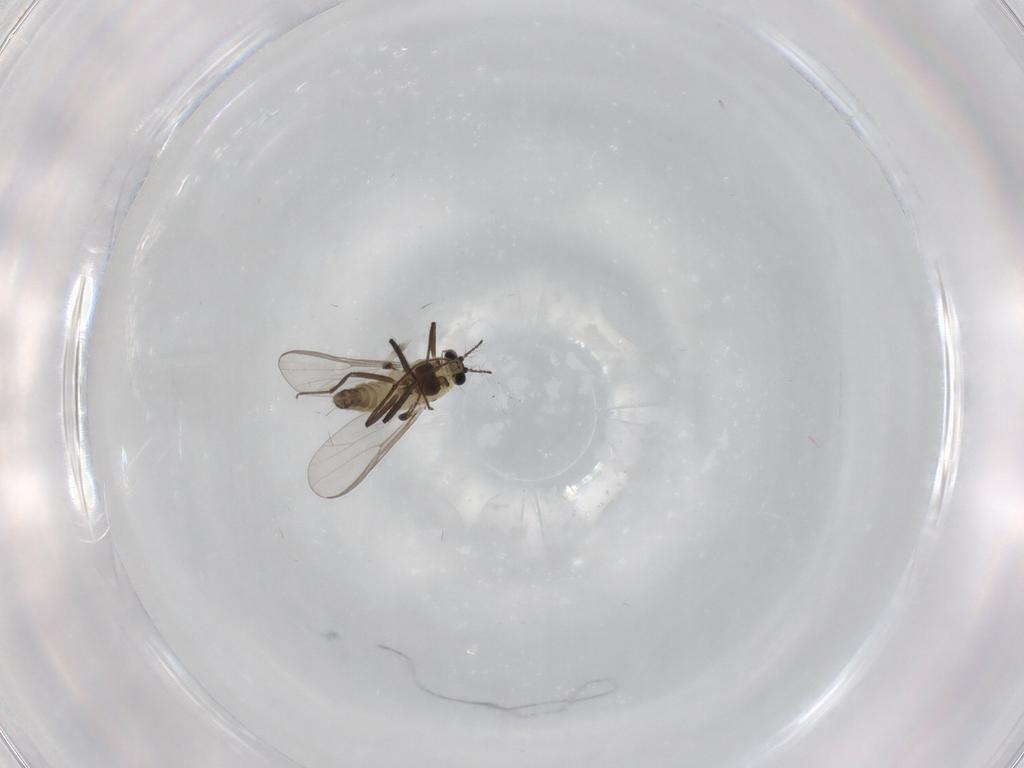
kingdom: Animalia
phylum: Arthropoda
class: Insecta
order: Diptera
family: Chironomidae
